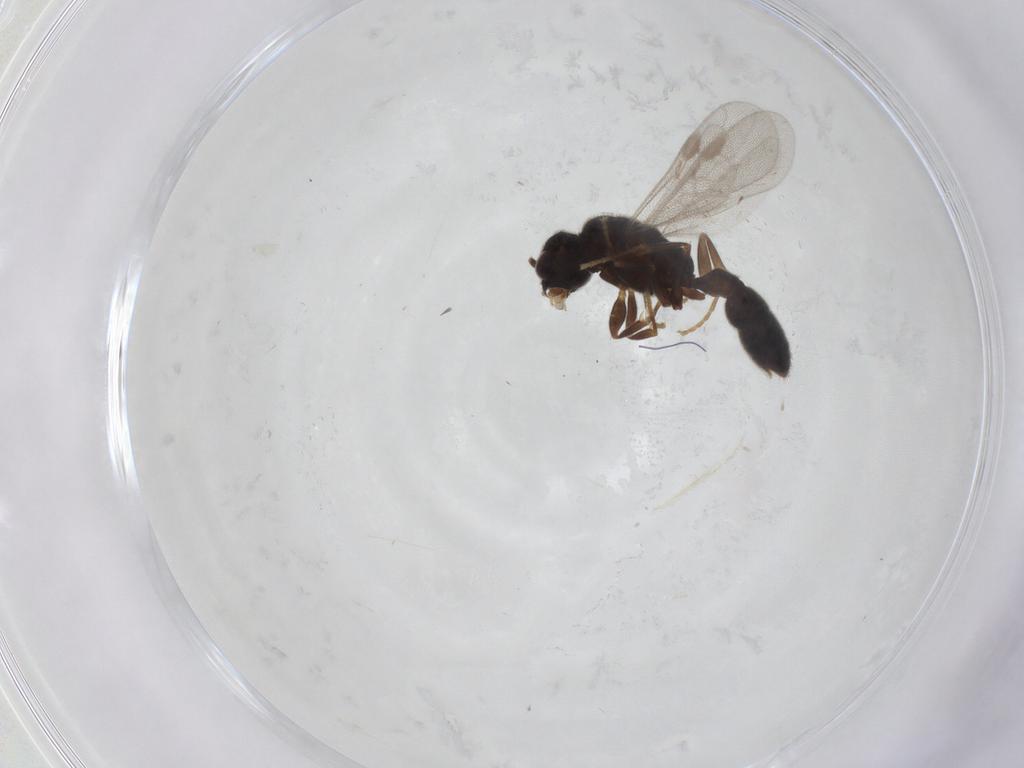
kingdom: Animalia
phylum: Arthropoda
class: Insecta
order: Hymenoptera
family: Formicidae
